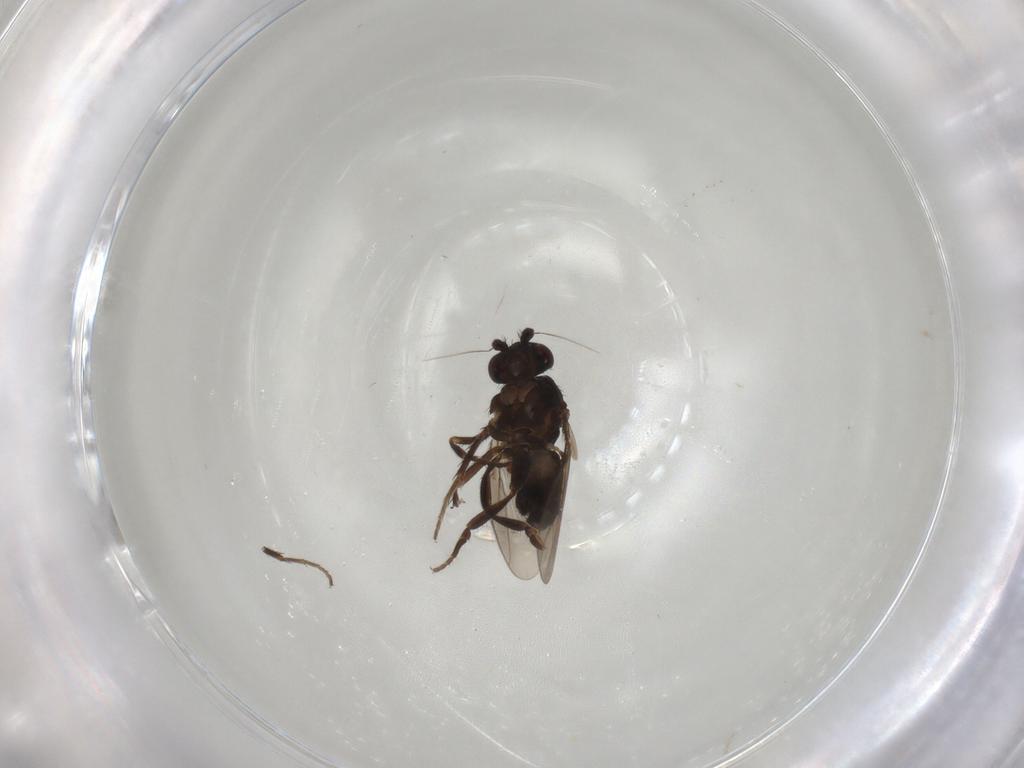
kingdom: Animalia
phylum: Arthropoda
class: Insecta
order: Diptera
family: Sphaeroceridae
